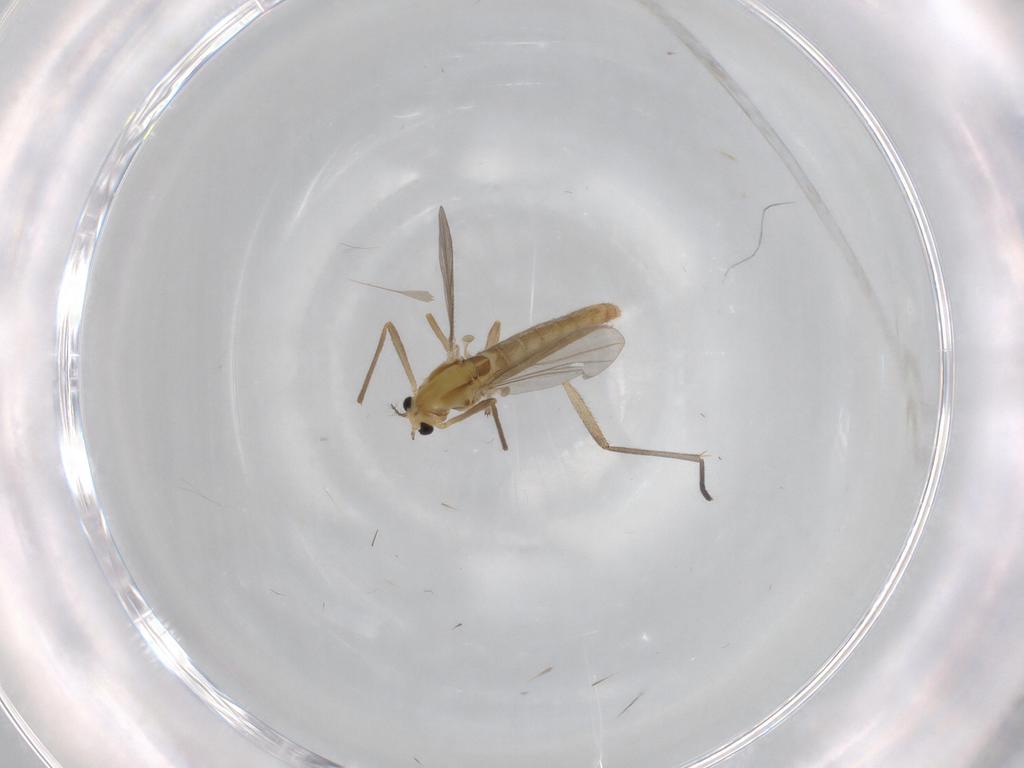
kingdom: Animalia
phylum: Arthropoda
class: Insecta
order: Diptera
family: Sciaridae
